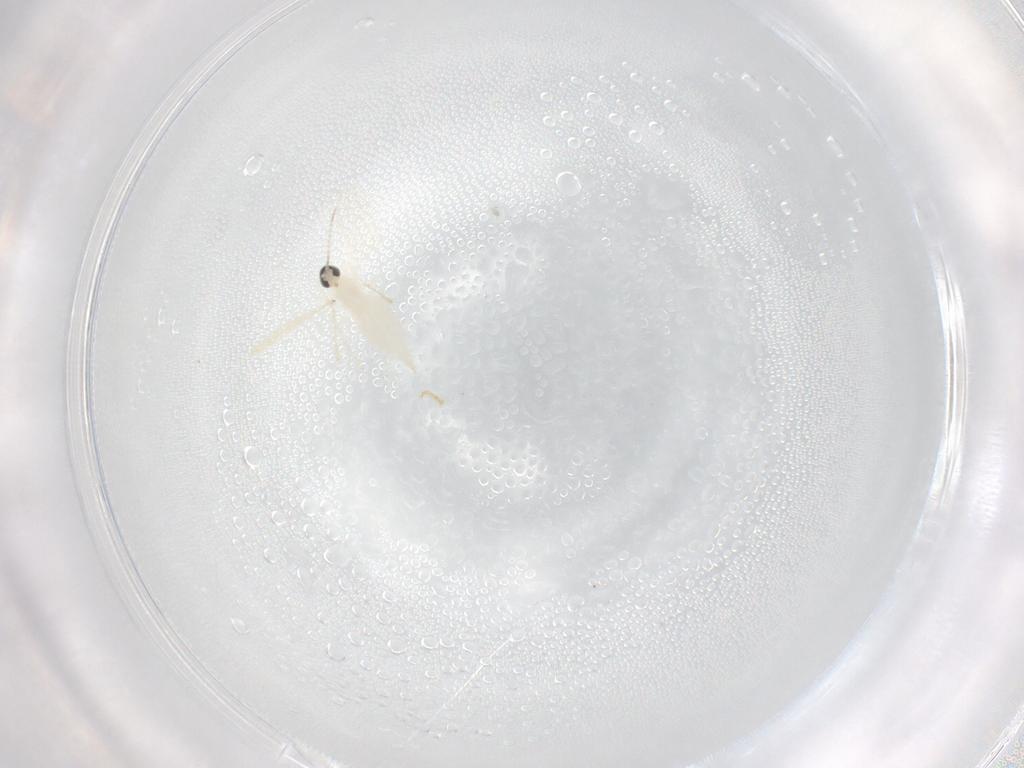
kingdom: Animalia
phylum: Arthropoda
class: Insecta
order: Diptera
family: Cecidomyiidae
